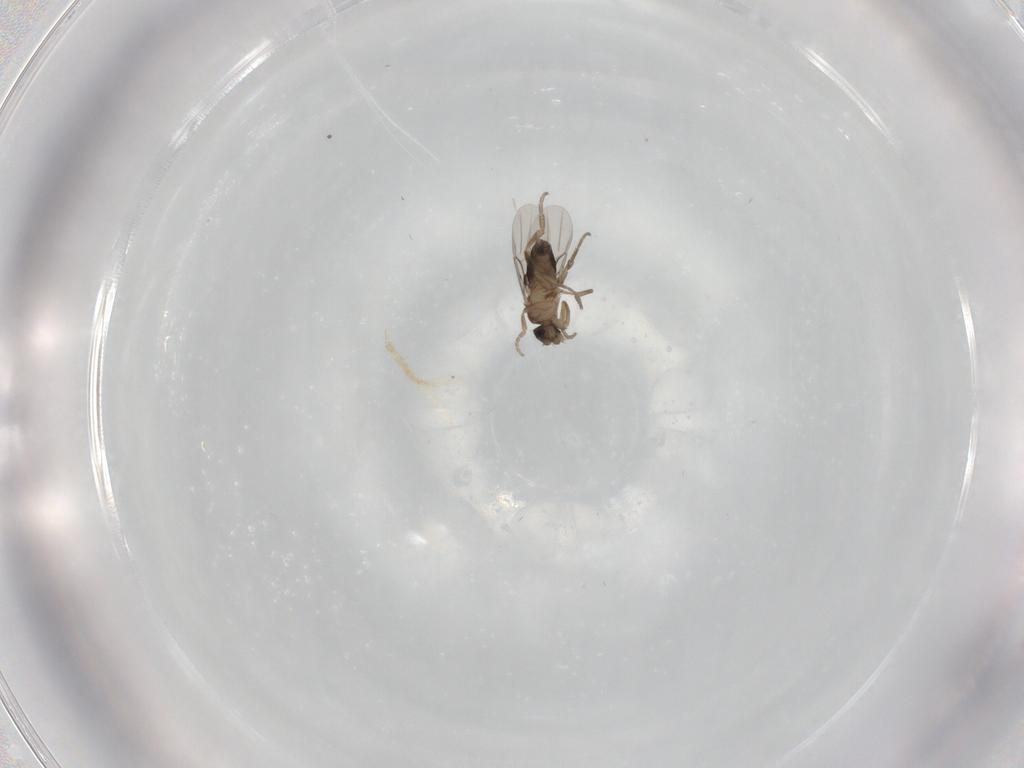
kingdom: Animalia
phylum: Arthropoda
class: Insecta
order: Diptera
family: Phoridae
